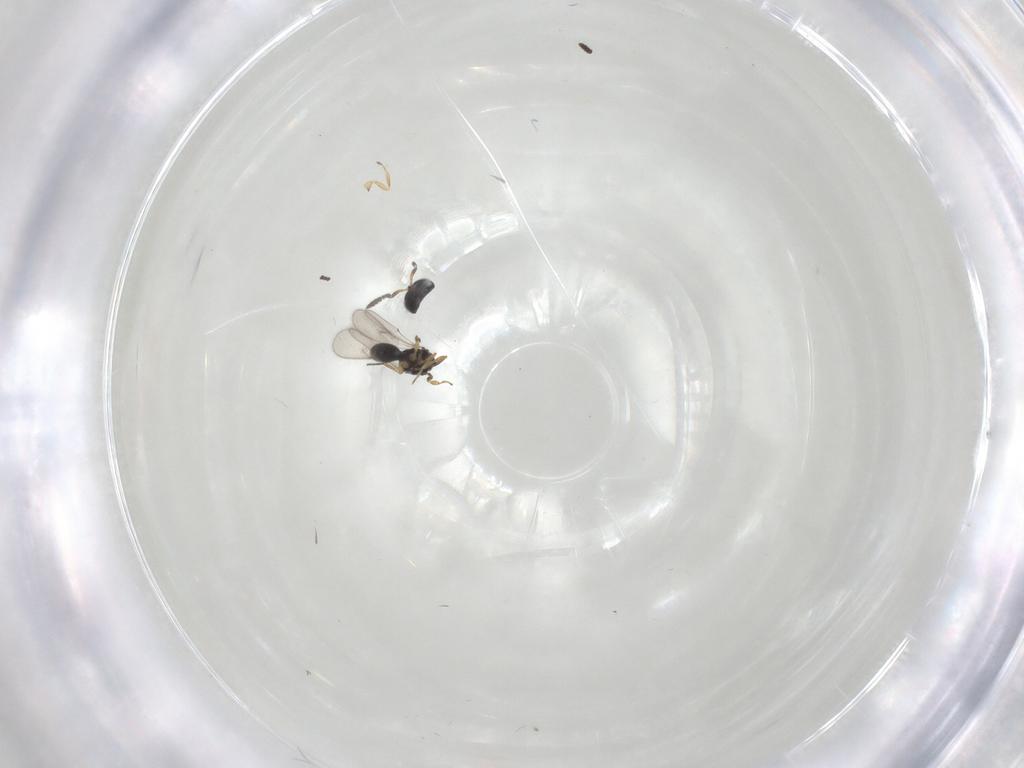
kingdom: Animalia
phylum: Arthropoda
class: Insecta
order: Hymenoptera
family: Scelionidae
